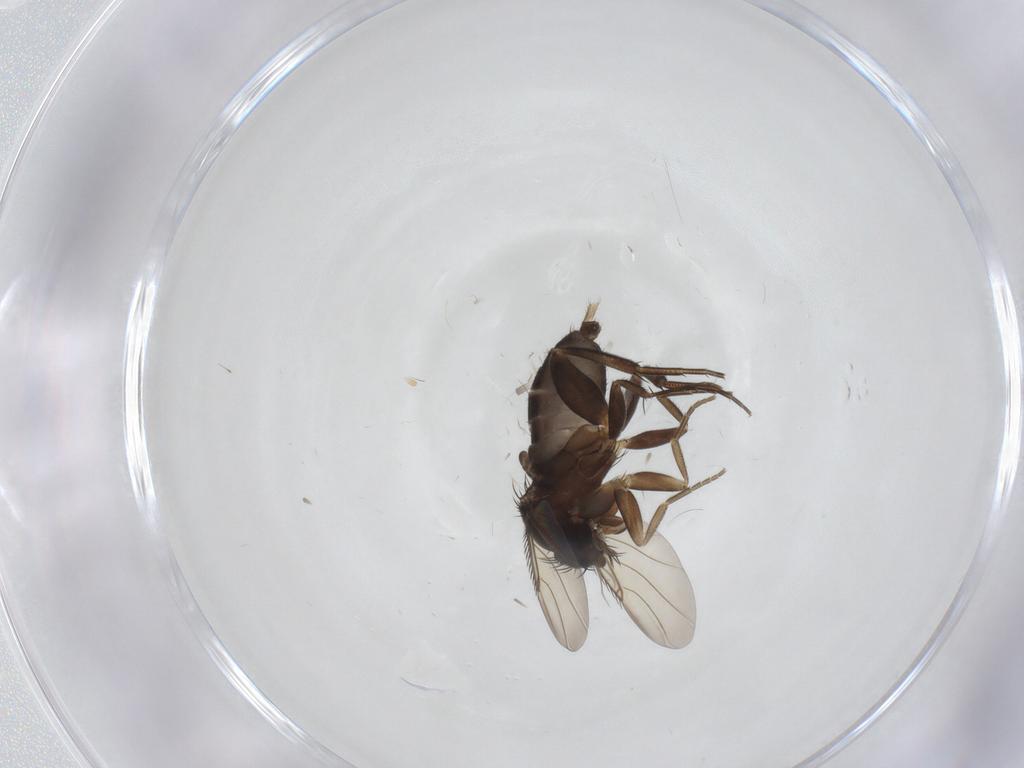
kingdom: Animalia
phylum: Arthropoda
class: Insecta
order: Diptera
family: Phoridae
